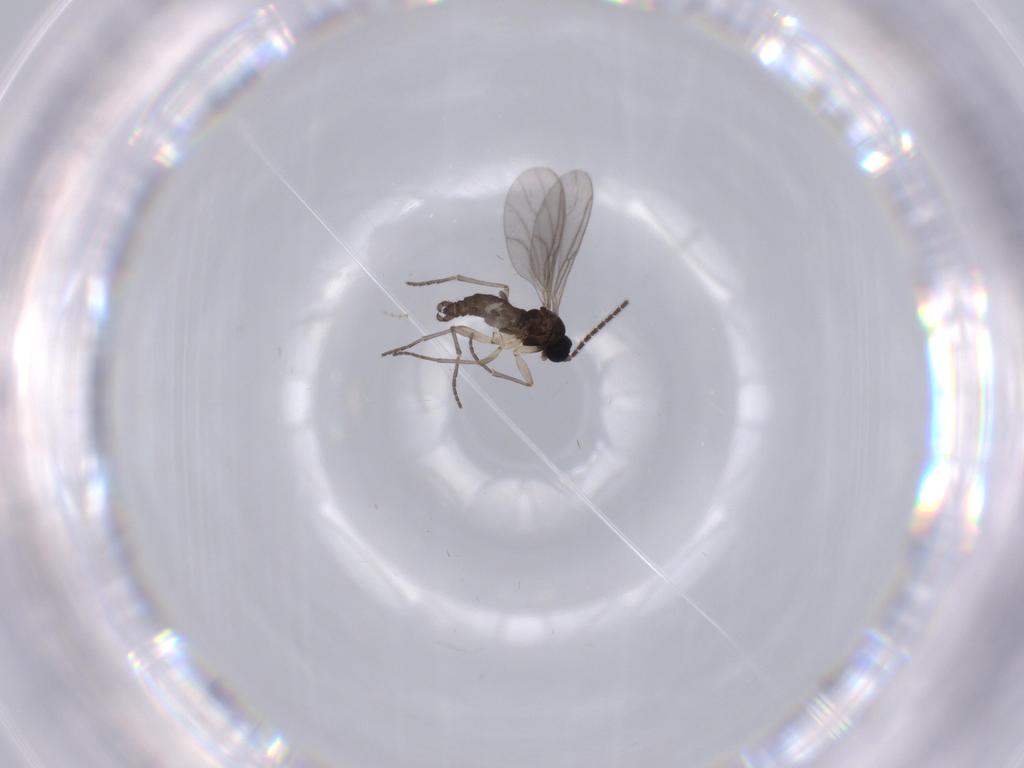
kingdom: Animalia
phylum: Arthropoda
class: Insecta
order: Diptera
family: Sciaridae
